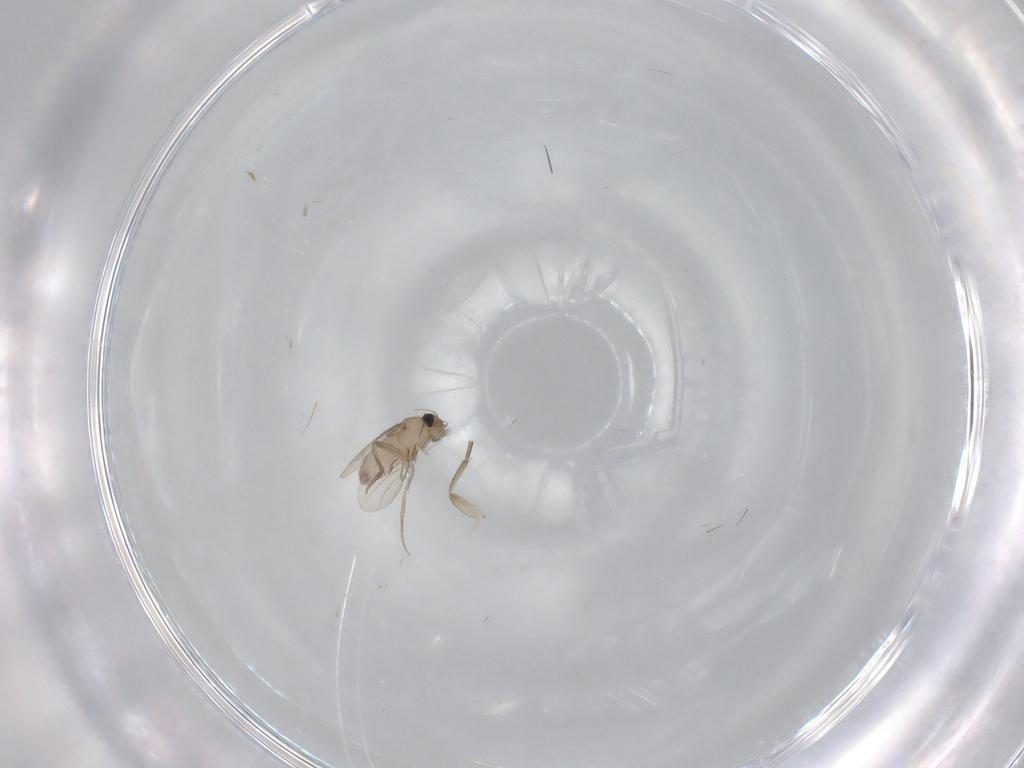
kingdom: Animalia
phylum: Arthropoda
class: Insecta
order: Diptera
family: Phoridae
